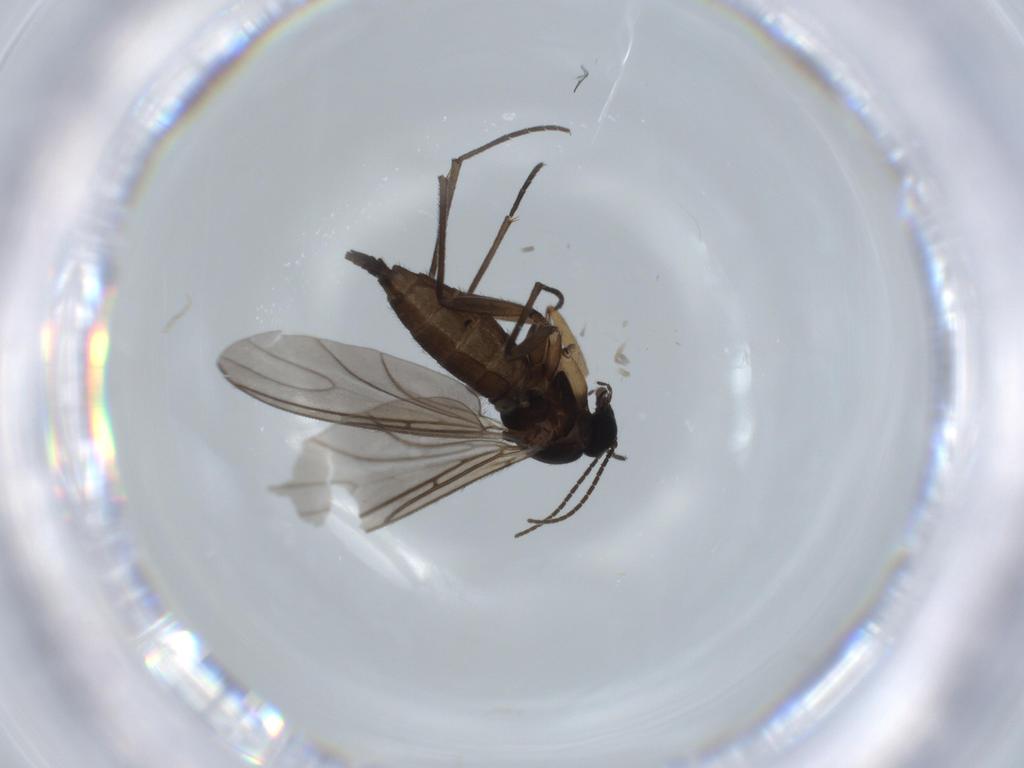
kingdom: Animalia
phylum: Arthropoda
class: Insecta
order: Diptera
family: Sciaridae
